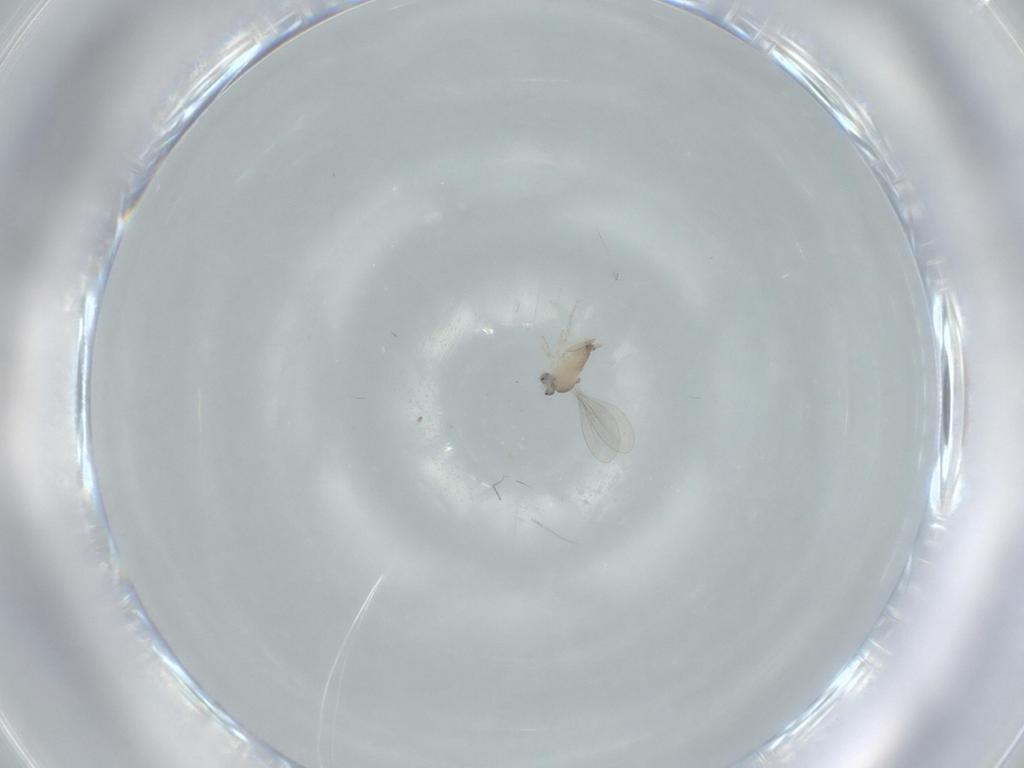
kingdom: Animalia
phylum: Arthropoda
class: Insecta
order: Diptera
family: Cecidomyiidae
